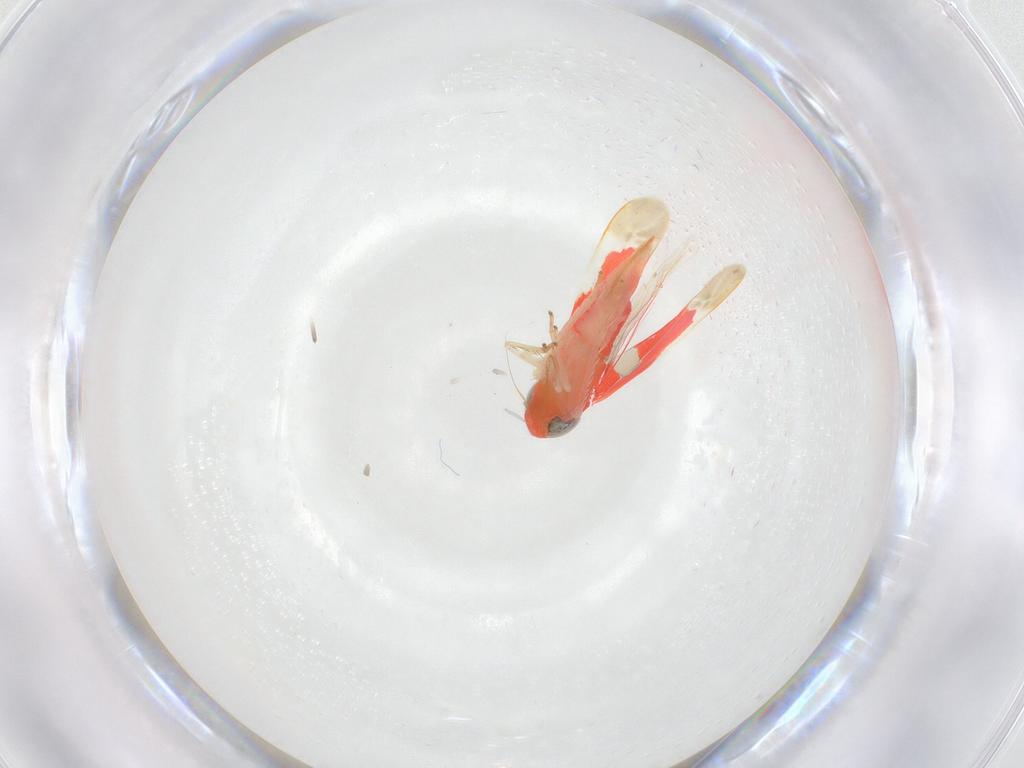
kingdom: Animalia
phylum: Arthropoda
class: Insecta
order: Hemiptera
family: Cicadellidae
